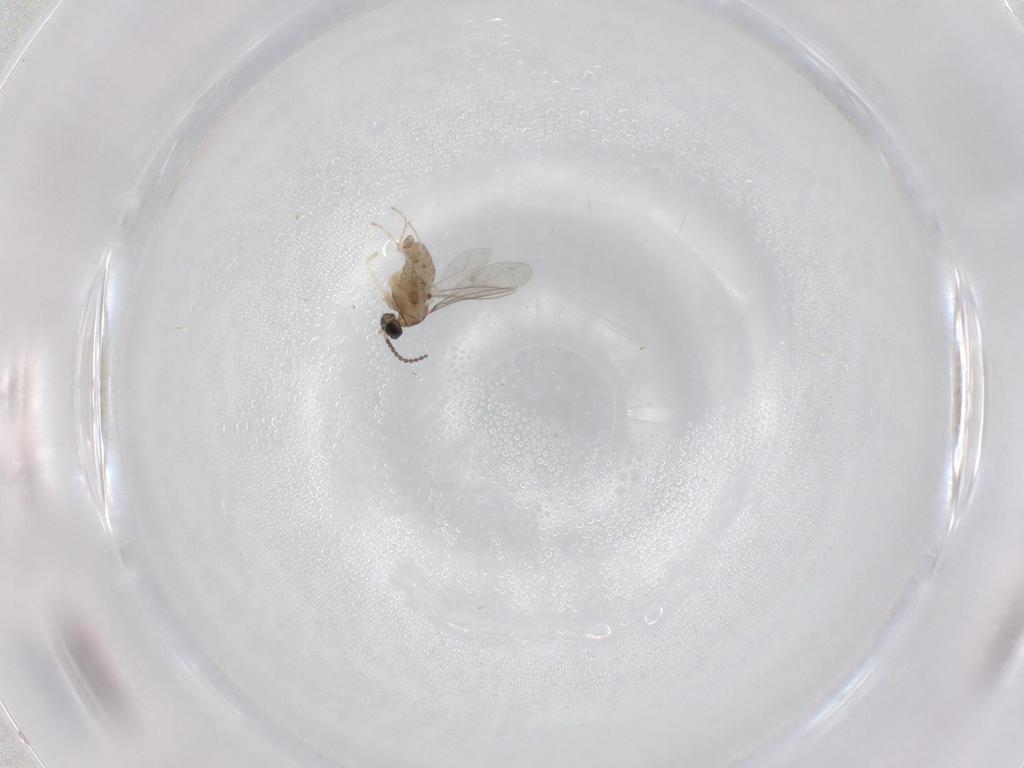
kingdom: Animalia
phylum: Arthropoda
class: Insecta
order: Diptera
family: Cecidomyiidae
